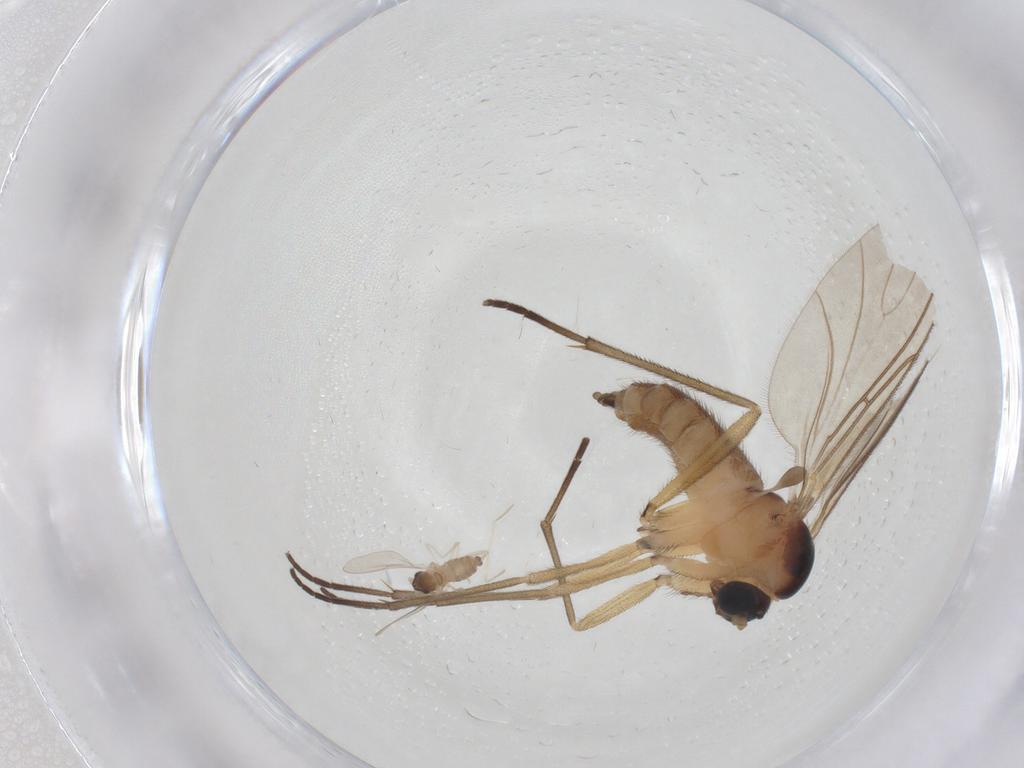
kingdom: Animalia
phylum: Arthropoda
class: Insecta
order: Diptera
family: Sciaridae
